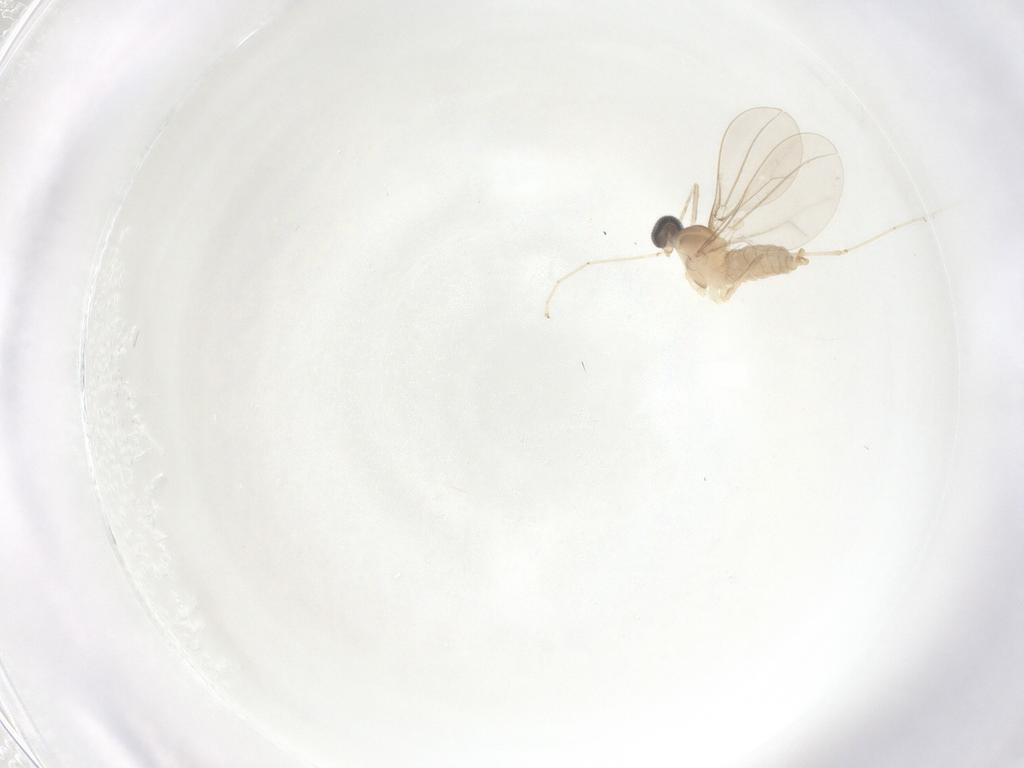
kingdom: Animalia
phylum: Arthropoda
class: Insecta
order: Diptera
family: Cecidomyiidae
